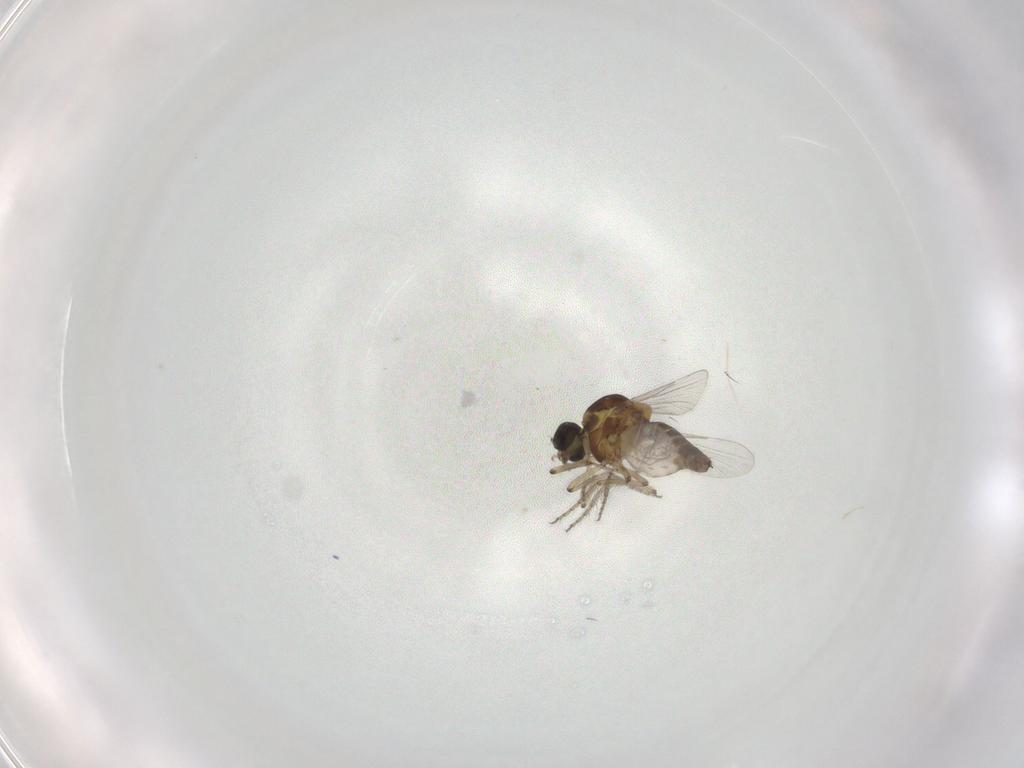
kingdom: Animalia
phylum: Arthropoda
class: Insecta
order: Diptera
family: Ceratopogonidae
